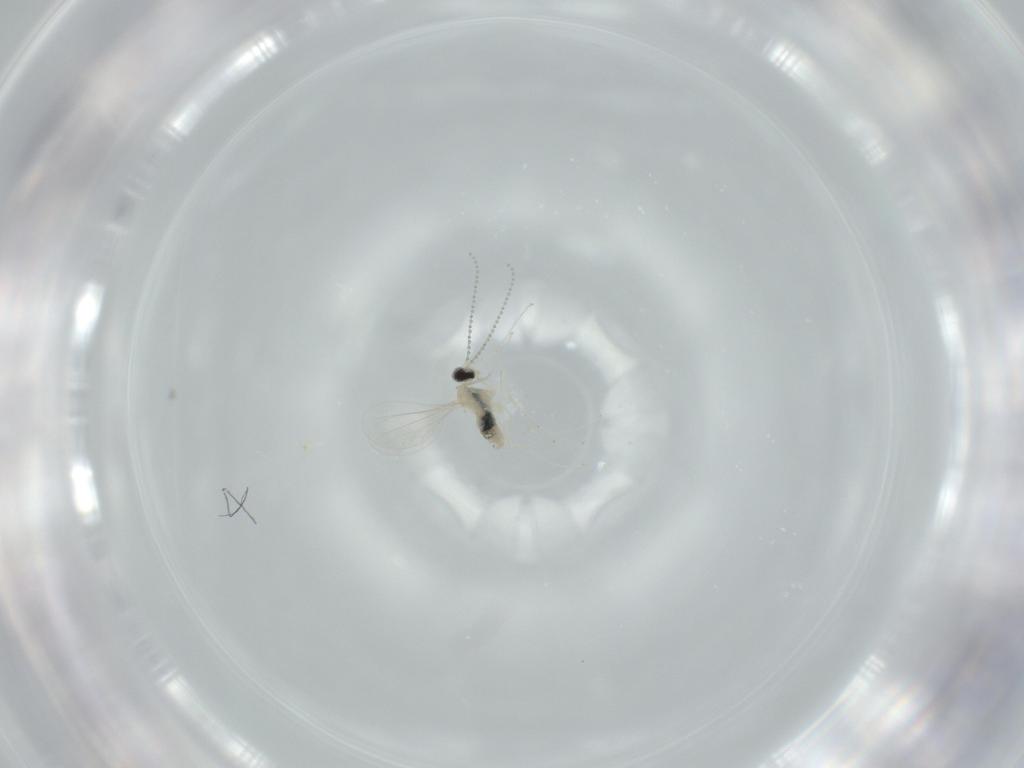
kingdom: Animalia
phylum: Arthropoda
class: Insecta
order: Diptera
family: Cecidomyiidae
